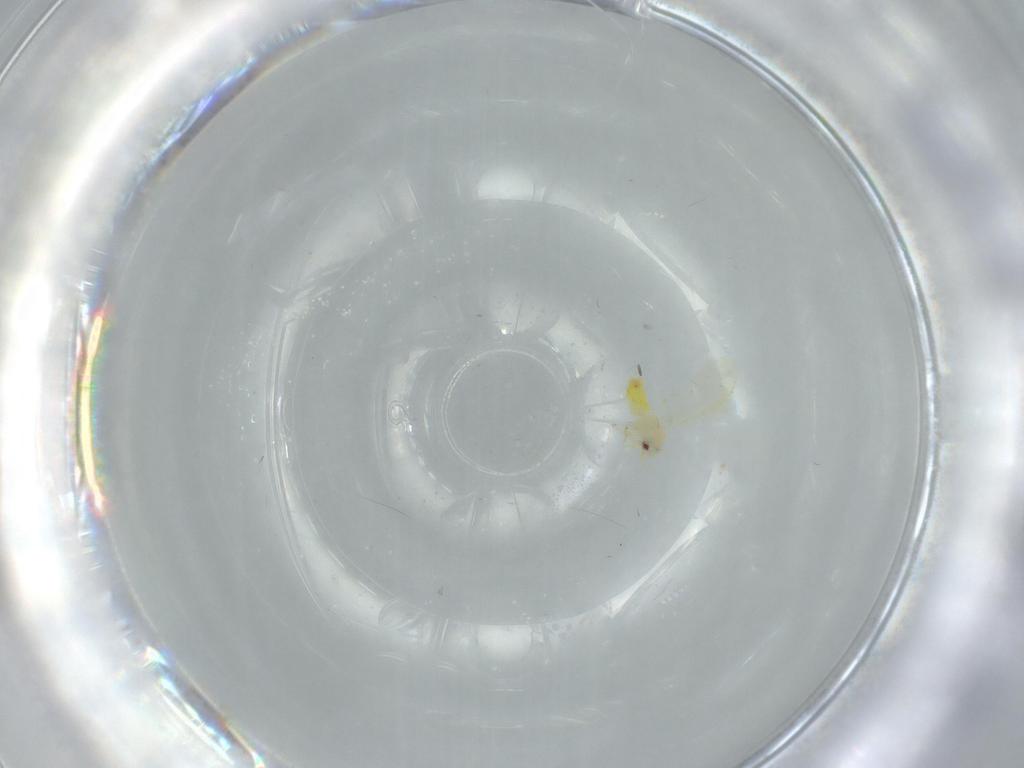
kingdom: Animalia
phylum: Arthropoda
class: Insecta
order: Hemiptera
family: Aleyrodidae
